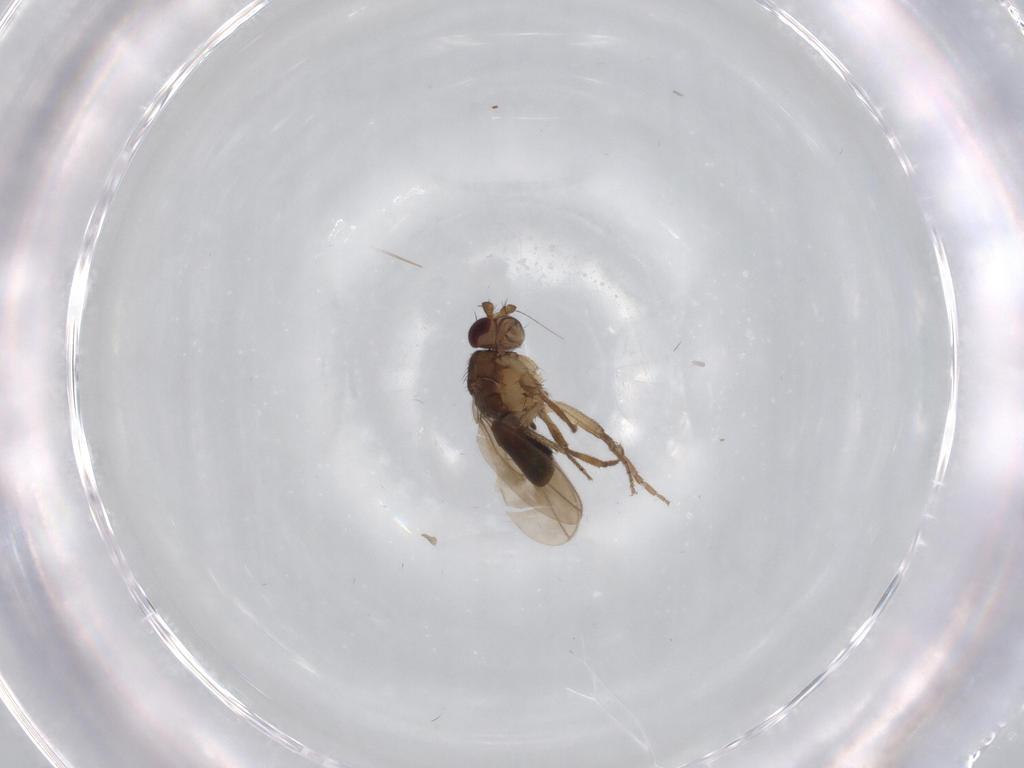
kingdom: Animalia
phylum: Arthropoda
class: Insecta
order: Diptera
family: Sphaeroceridae
